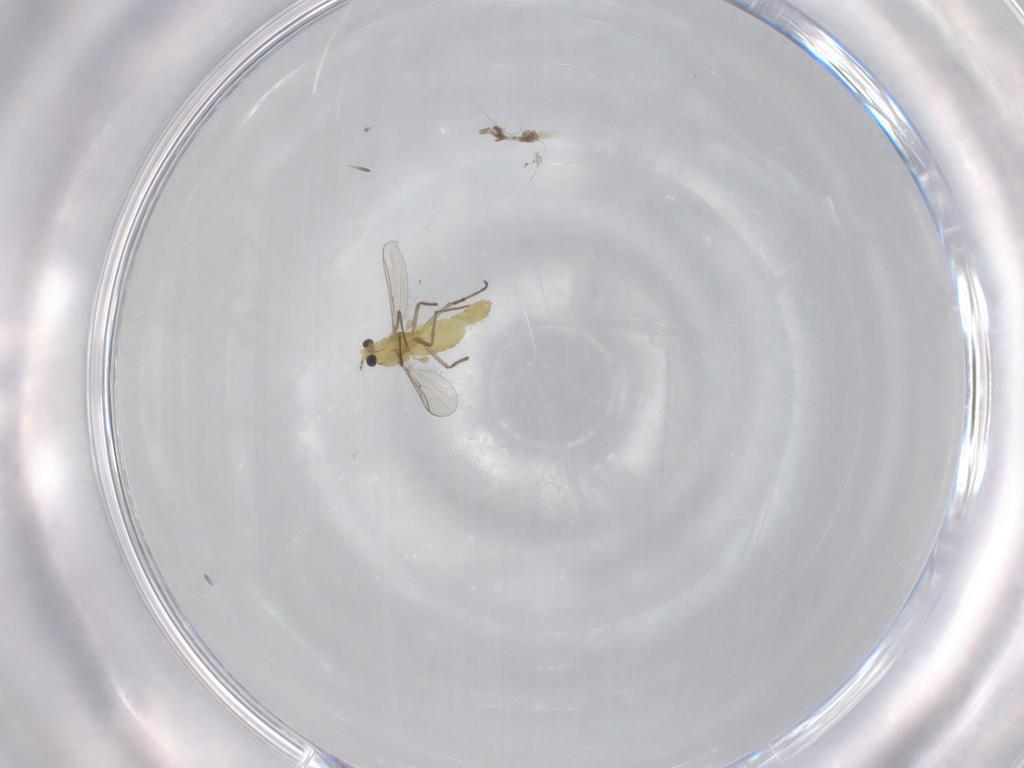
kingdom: Animalia
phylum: Arthropoda
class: Insecta
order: Diptera
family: Chironomidae
